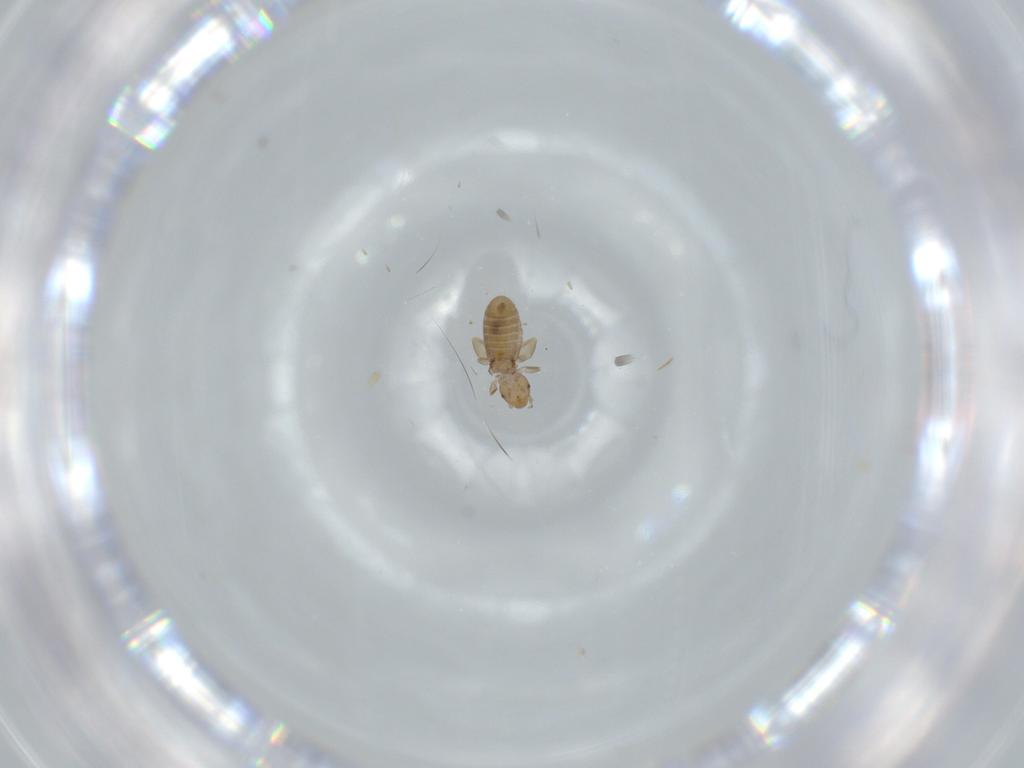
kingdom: Animalia
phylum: Arthropoda
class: Insecta
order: Psocodea
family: Liposcelididae
